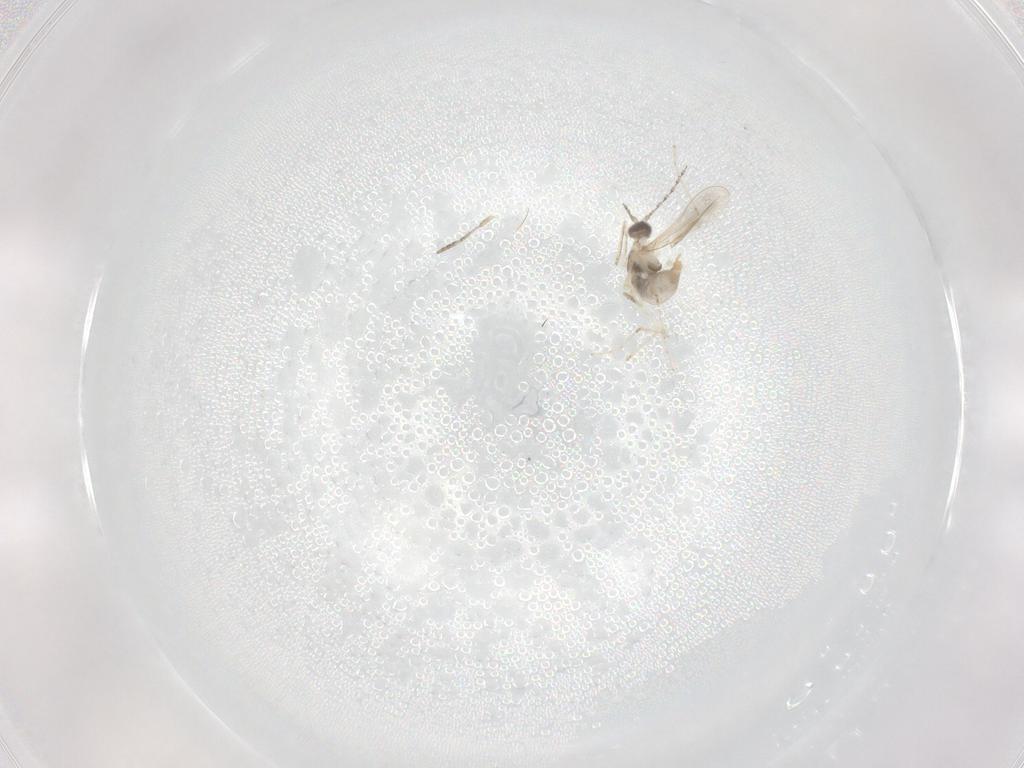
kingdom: Animalia
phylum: Arthropoda
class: Insecta
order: Diptera
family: Cecidomyiidae
